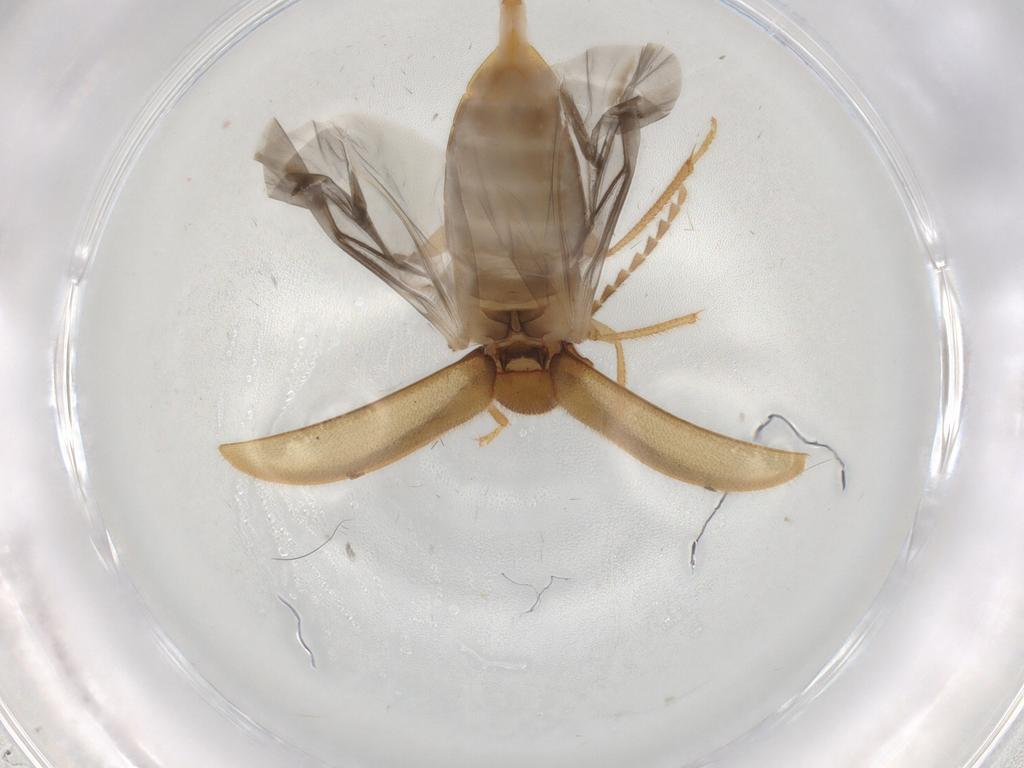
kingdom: Animalia
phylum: Arthropoda
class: Insecta
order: Coleoptera
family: Ptilodactylidae
